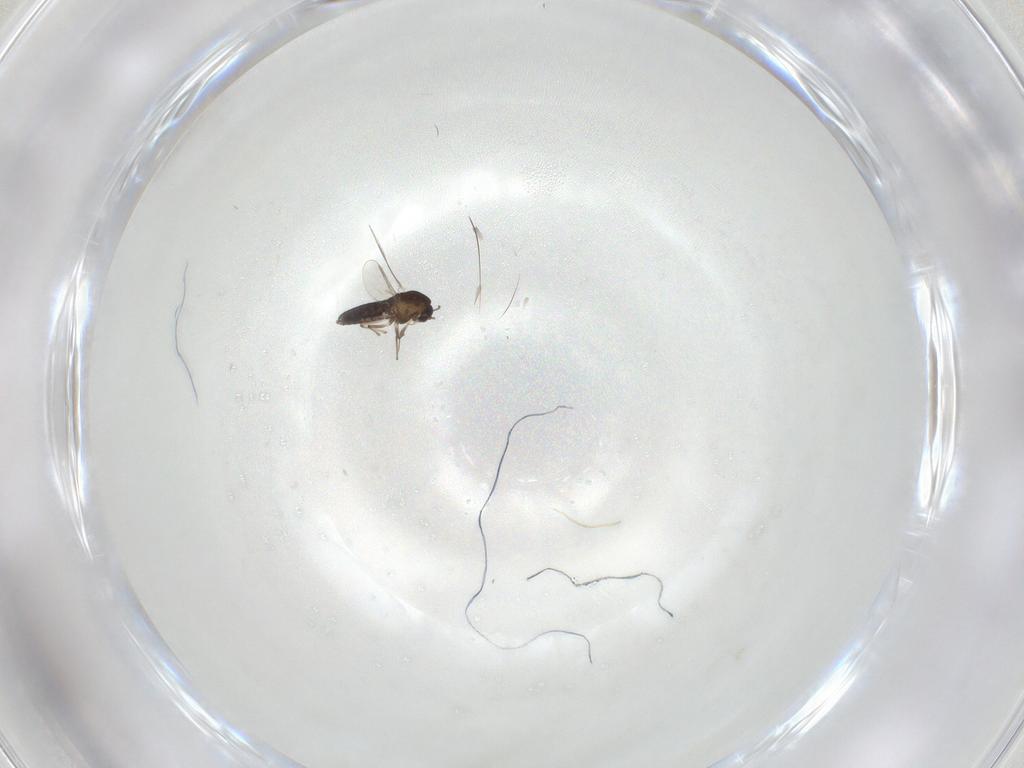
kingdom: Animalia
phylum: Arthropoda
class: Insecta
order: Diptera
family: Chironomidae
